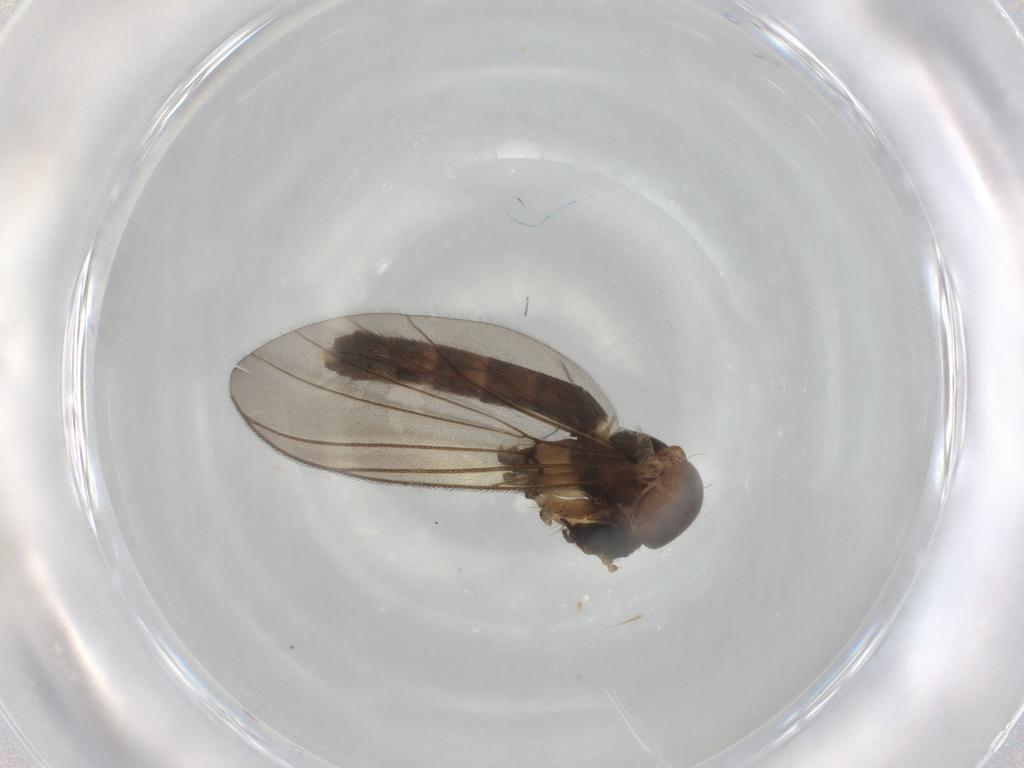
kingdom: Animalia
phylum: Arthropoda
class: Insecta
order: Diptera
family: Mycetophilidae
